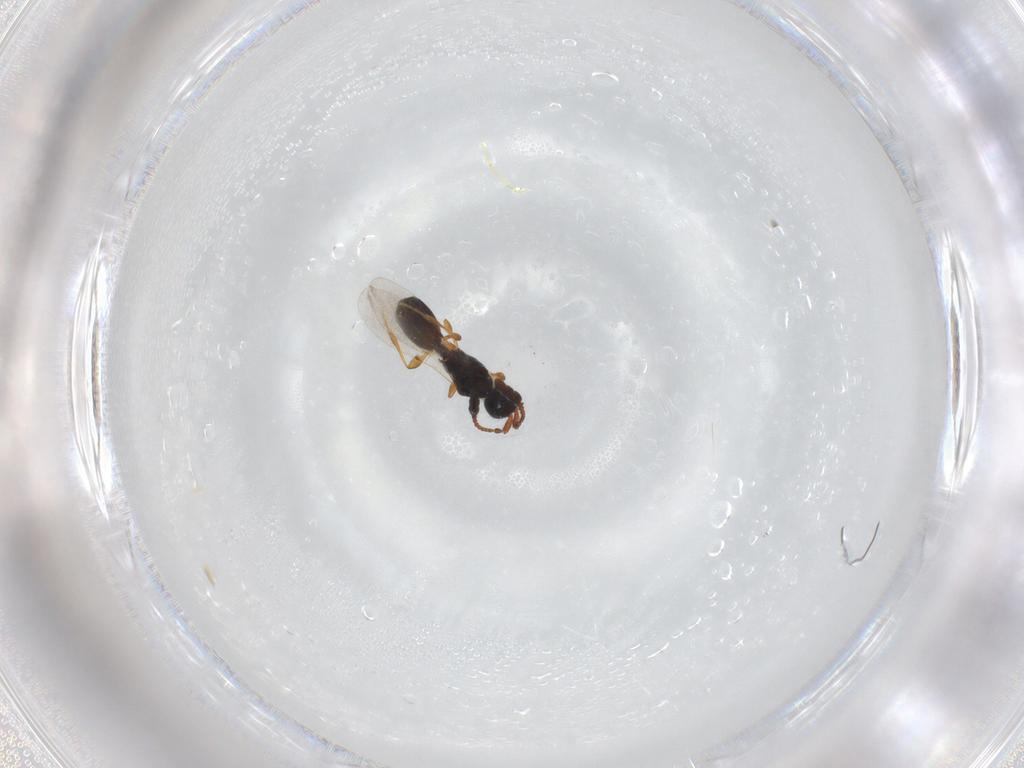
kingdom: Animalia
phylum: Arthropoda
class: Insecta
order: Hymenoptera
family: Diapriidae
